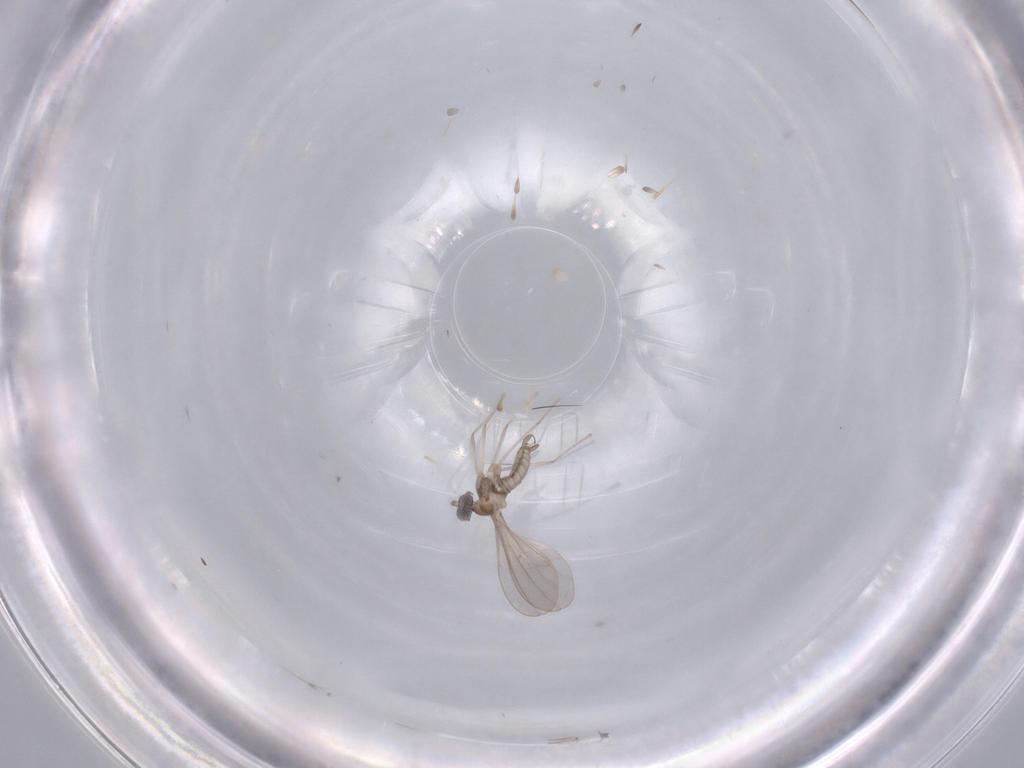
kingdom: Animalia
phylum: Arthropoda
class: Insecta
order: Diptera
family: Cecidomyiidae
